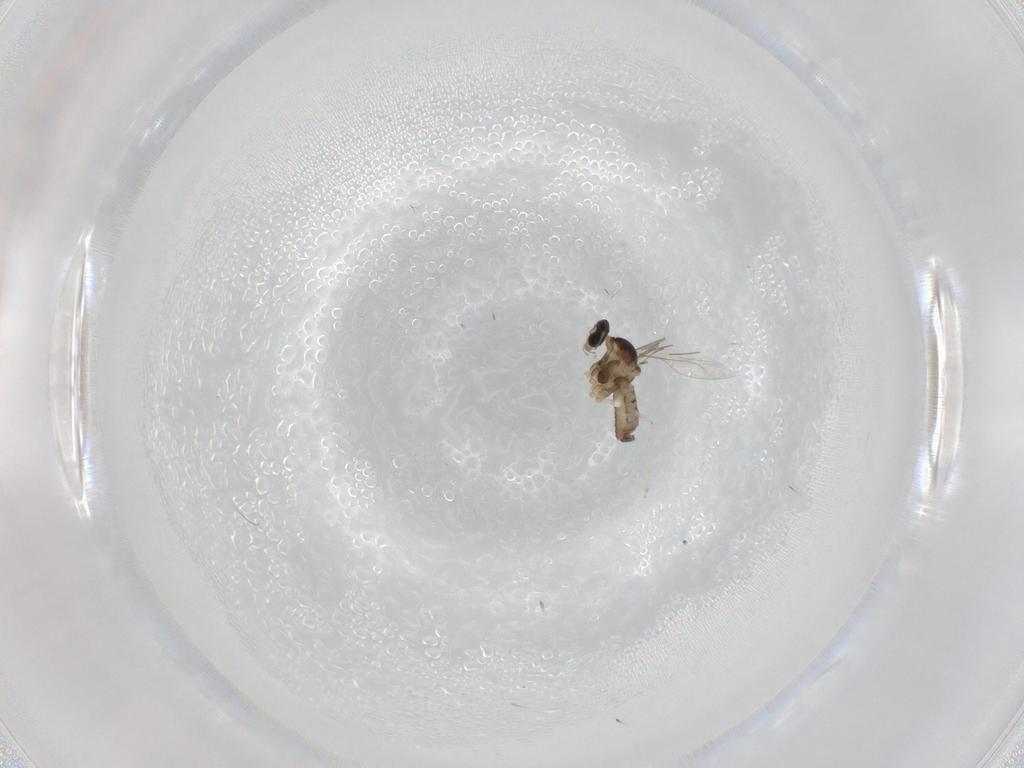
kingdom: Animalia
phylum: Arthropoda
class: Insecta
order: Diptera
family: Cecidomyiidae
